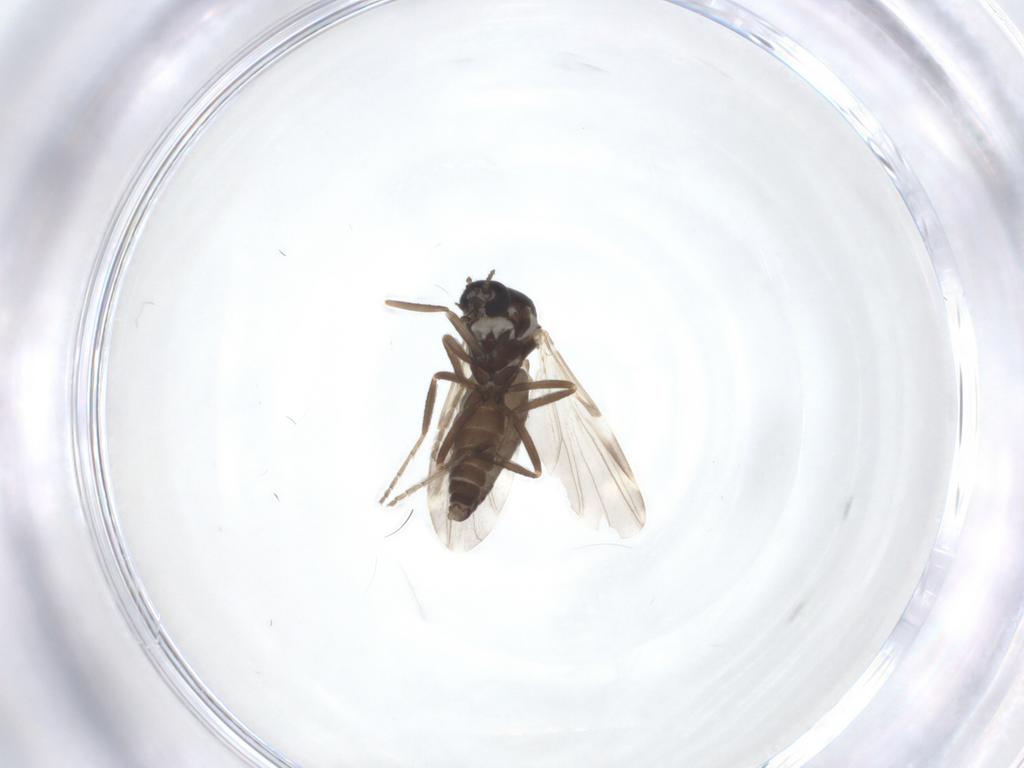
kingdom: Animalia
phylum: Arthropoda
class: Insecta
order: Diptera
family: Ceratopogonidae
